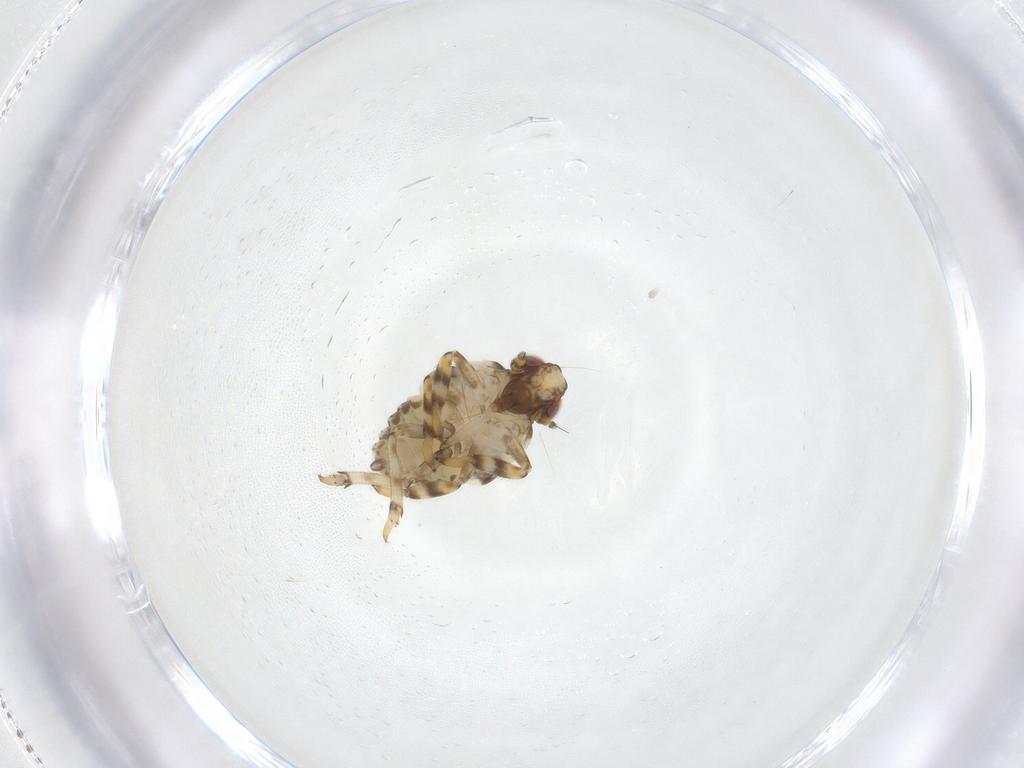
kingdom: Animalia
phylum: Arthropoda
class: Insecta
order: Hemiptera
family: Issidae
